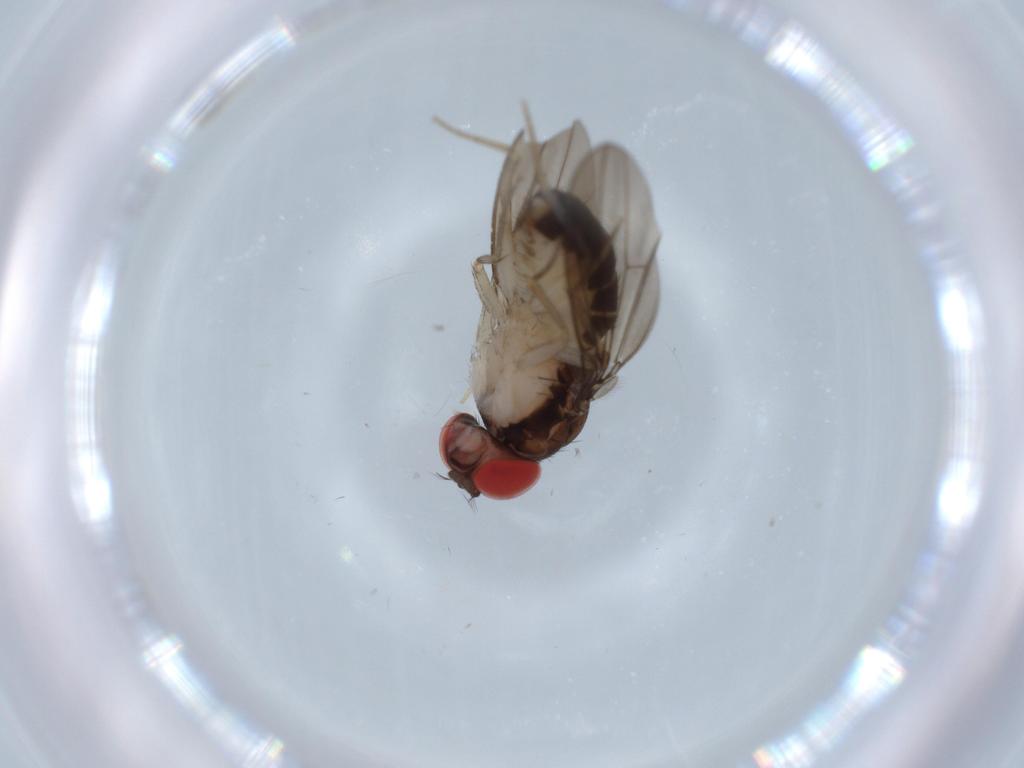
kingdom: Animalia
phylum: Arthropoda
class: Insecta
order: Diptera
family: Drosophilidae
